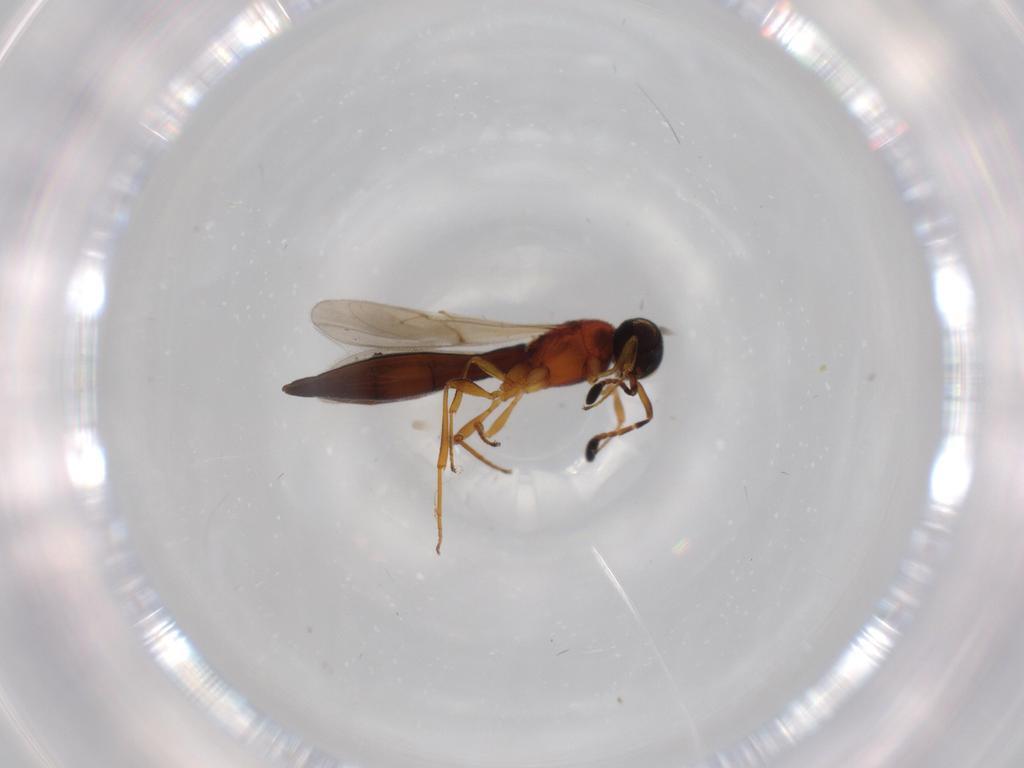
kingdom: Animalia
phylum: Arthropoda
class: Insecta
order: Hymenoptera
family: Scelionidae
